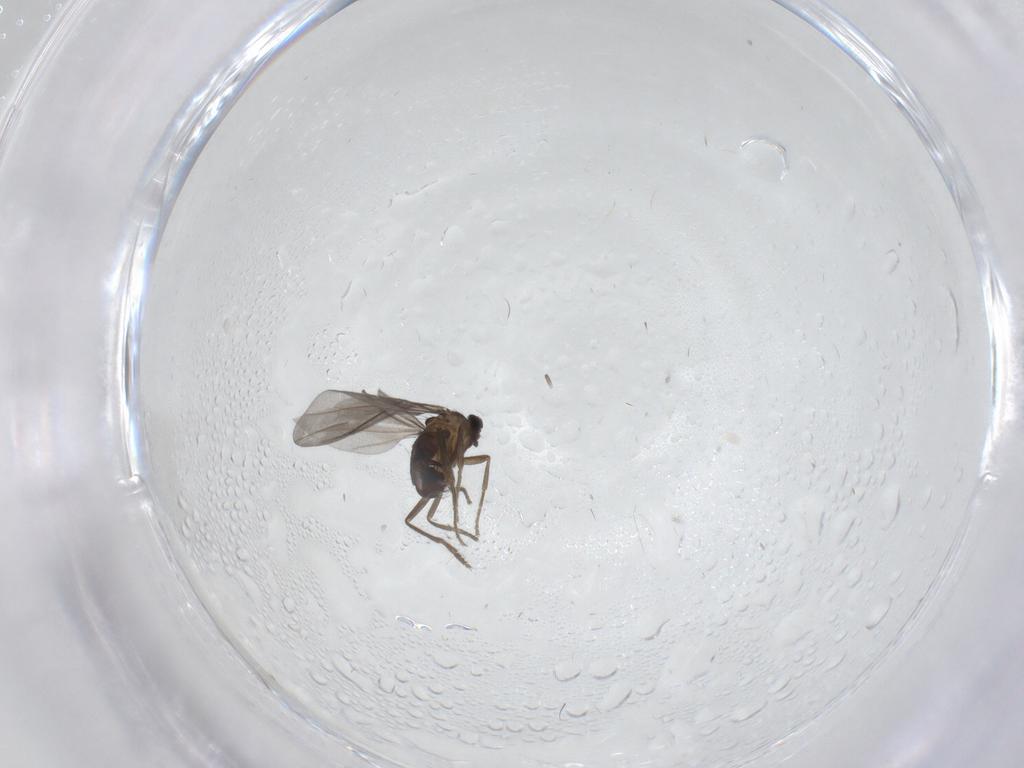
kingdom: Animalia
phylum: Arthropoda
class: Insecta
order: Diptera
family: Phoridae
